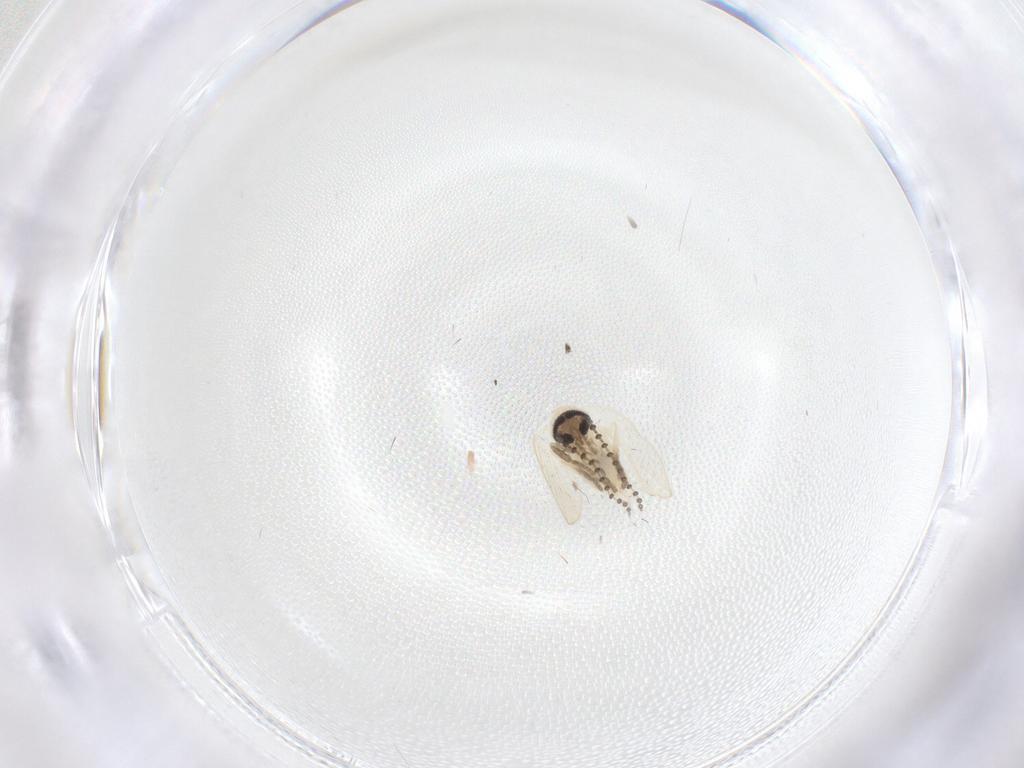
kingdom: Animalia
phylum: Arthropoda
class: Insecta
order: Diptera
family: Psychodidae
